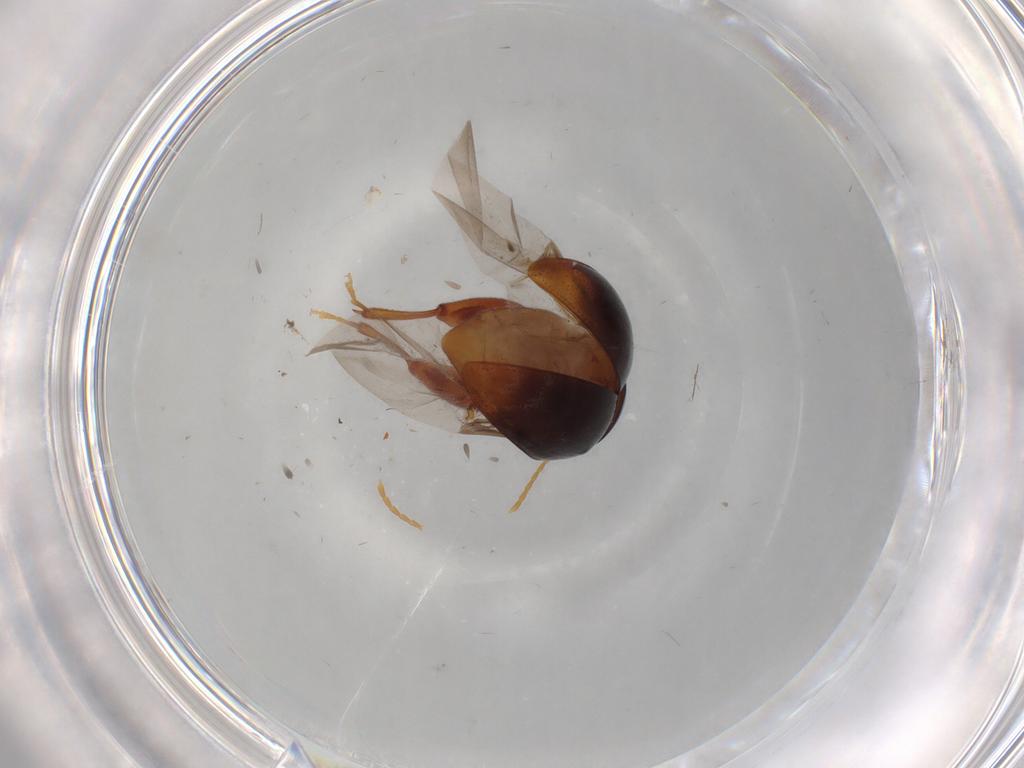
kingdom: Animalia
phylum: Arthropoda
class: Insecta
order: Coleoptera
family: Chrysomelidae
